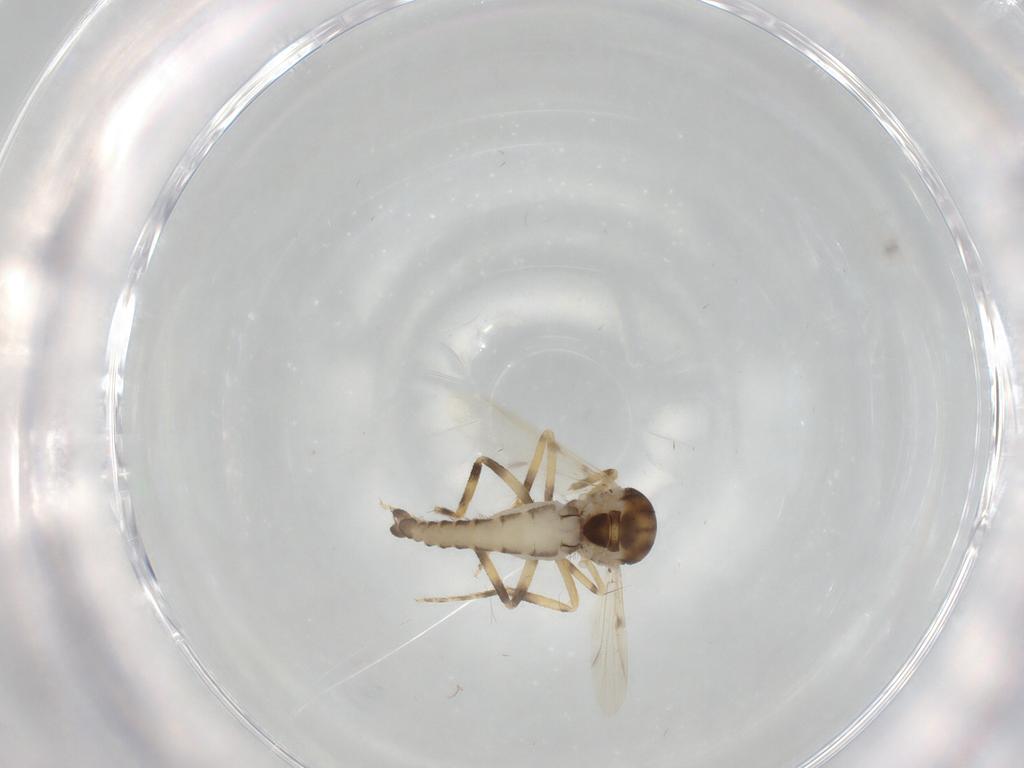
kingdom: Animalia
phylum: Arthropoda
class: Insecta
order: Diptera
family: Ceratopogonidae
